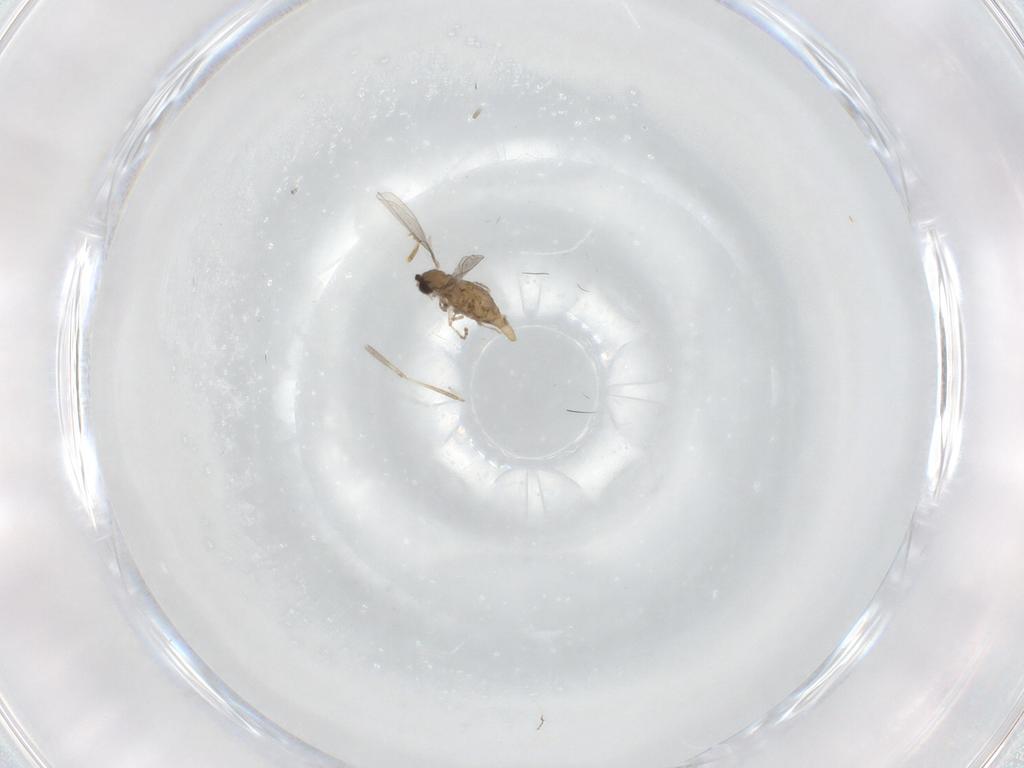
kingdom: Animalia
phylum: Arthropoda
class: Insecta
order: Diptera
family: Cecidomyiidae
